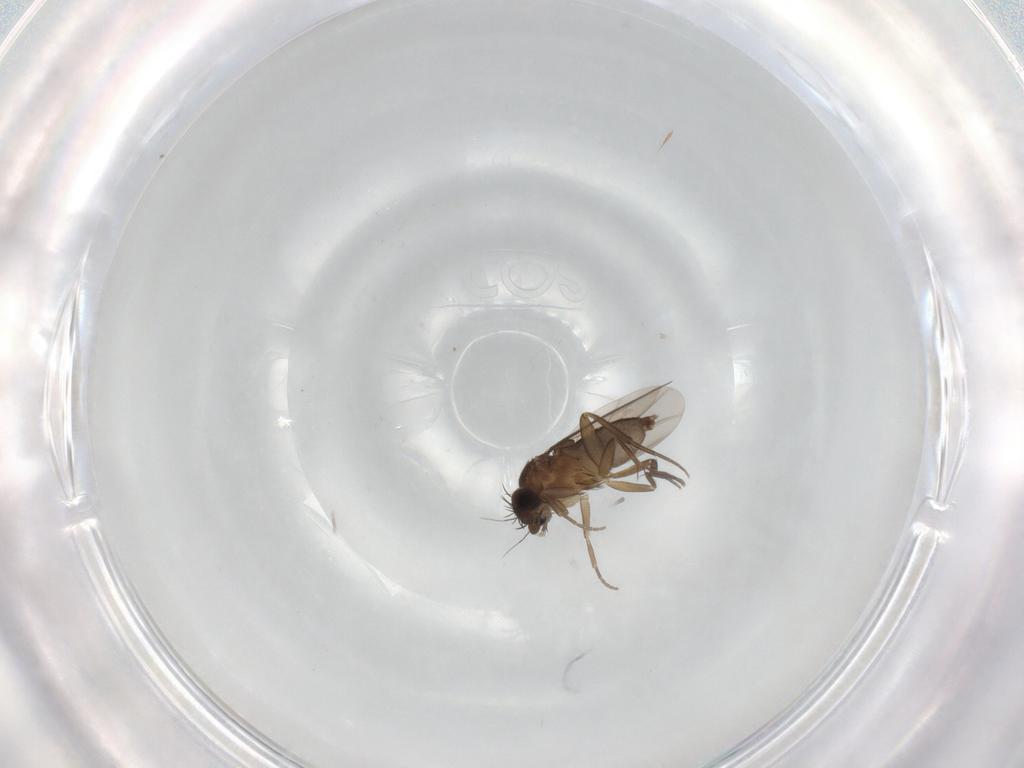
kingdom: Animalia
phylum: Arthropoda
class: Insecta
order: Diptera
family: Phoridae
